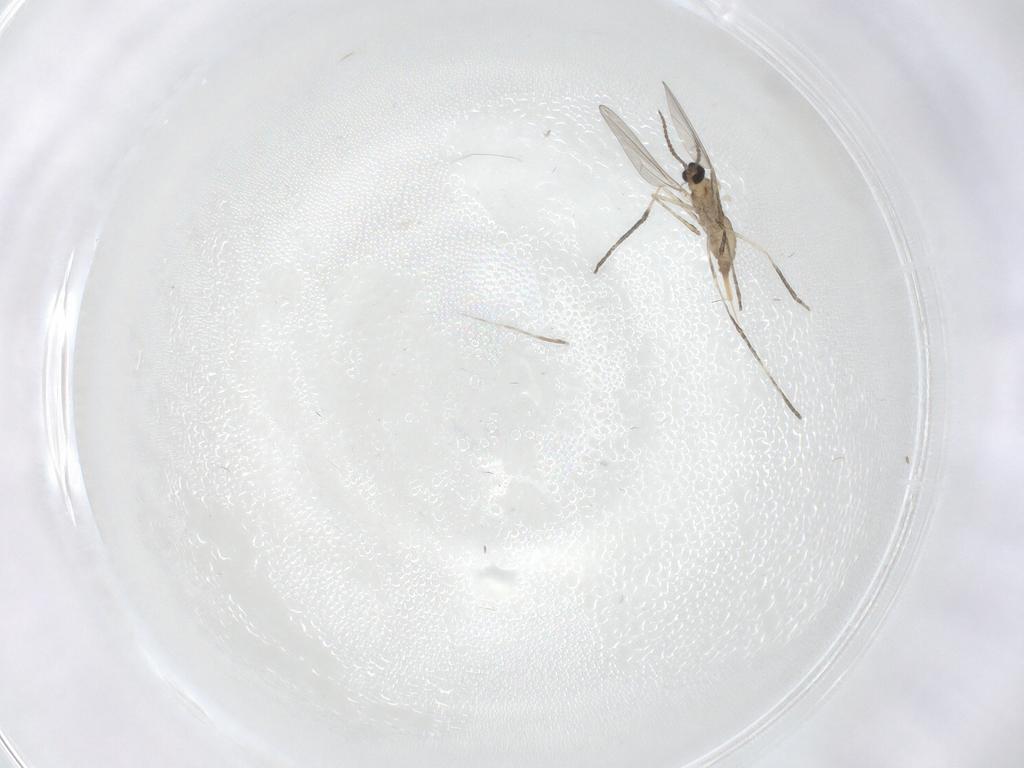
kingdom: Animalia
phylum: Arthropoda
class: Insecta
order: Diptera
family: Cecidomyiidae
